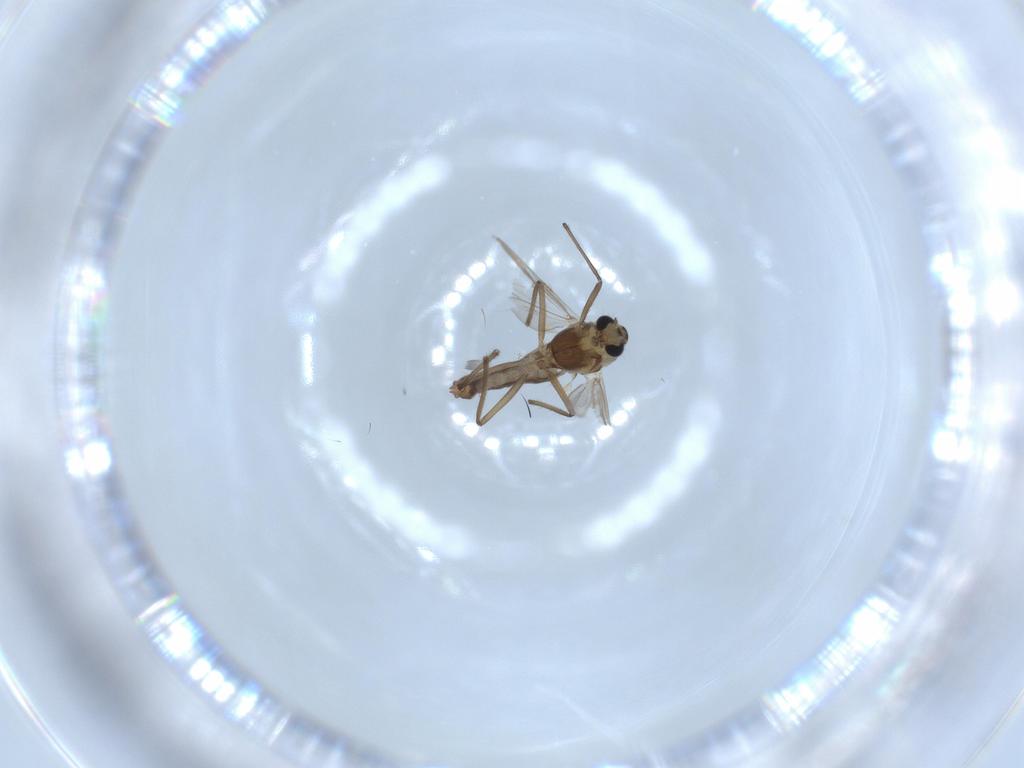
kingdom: Animalia
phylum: Arthropoda
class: Insecta
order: Diptera
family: Chironomidae
